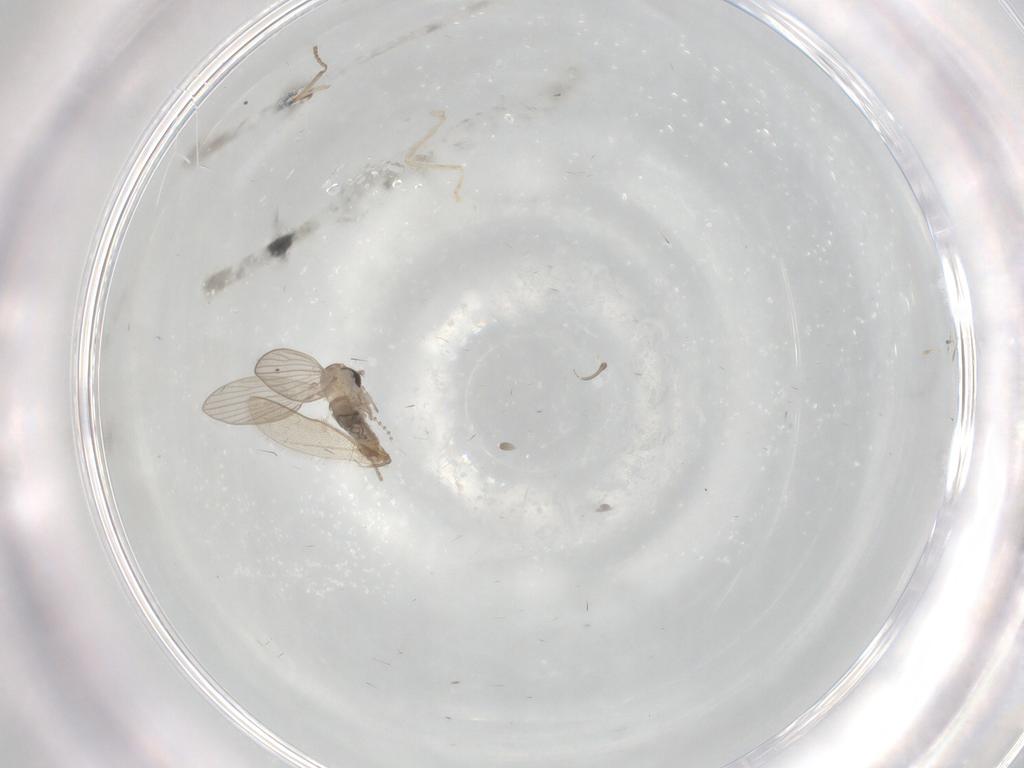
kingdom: Animalia
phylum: Arthropoda
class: Insecta
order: Diptera
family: Psychodidae
